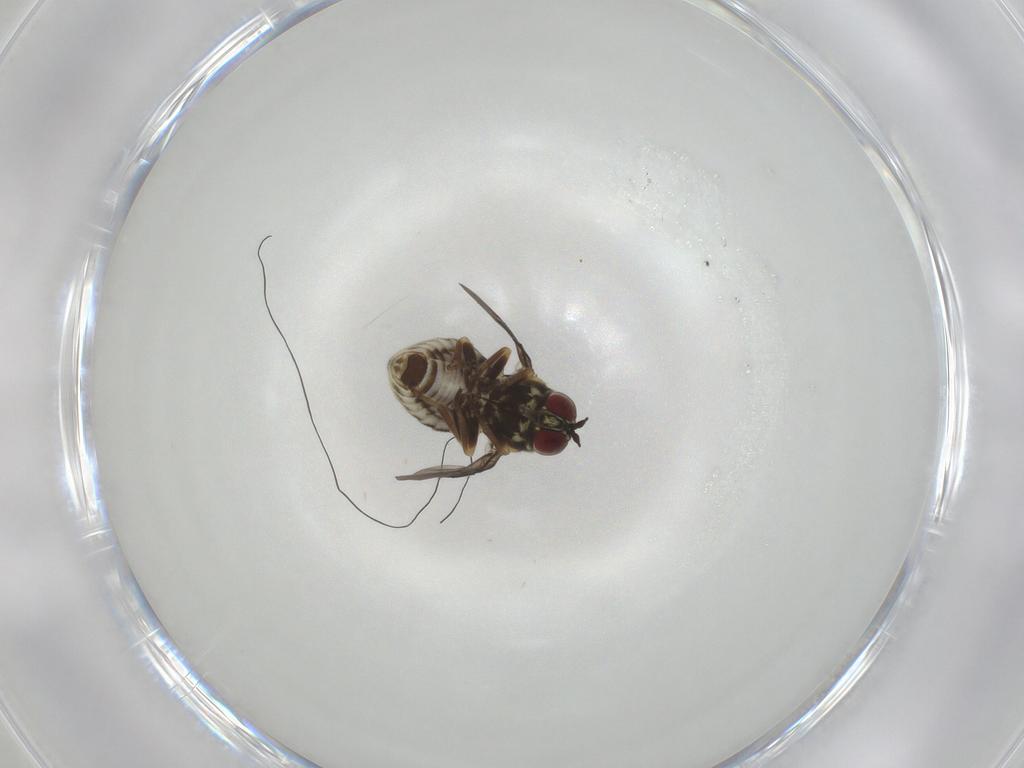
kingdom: Animalia
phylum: Arthropoda
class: Insecta
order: Diptera
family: Bombyliidae
